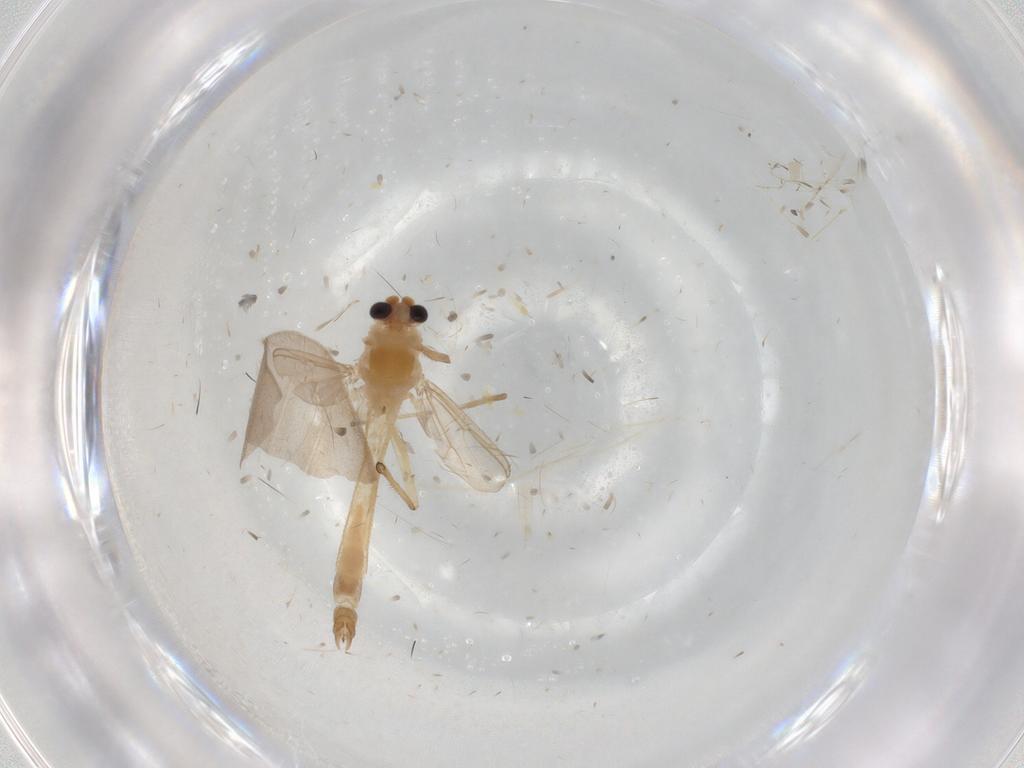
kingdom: Animalia
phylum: Arthropoda
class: Insecta
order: Diptera
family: Chironomidae
